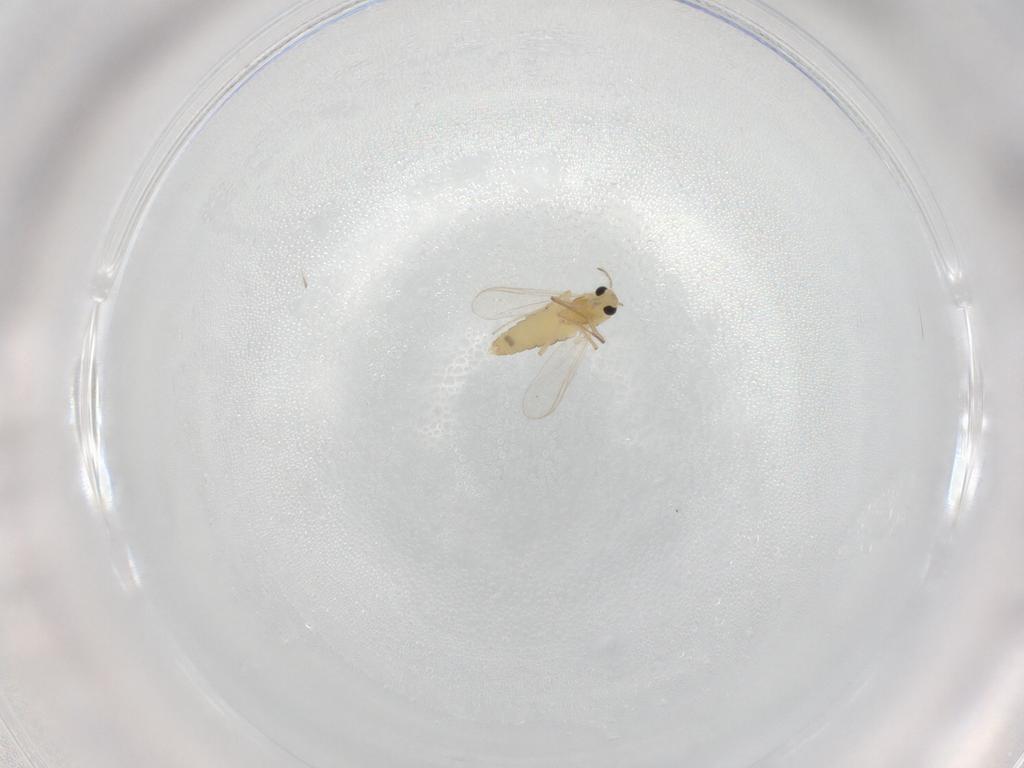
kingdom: Animalia
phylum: Arthropoda
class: Insecta
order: Diptera
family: Chironomidae
